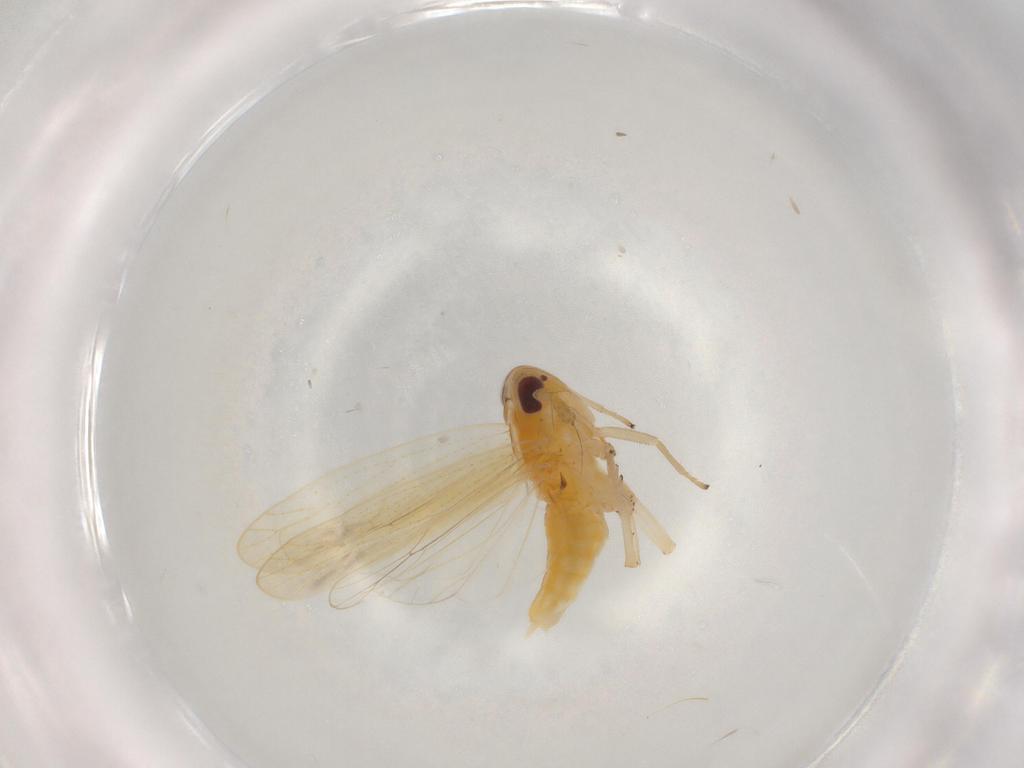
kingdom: Animalia
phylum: Arthropoda
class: Insecta
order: Hemiptera
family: Delphacidae
